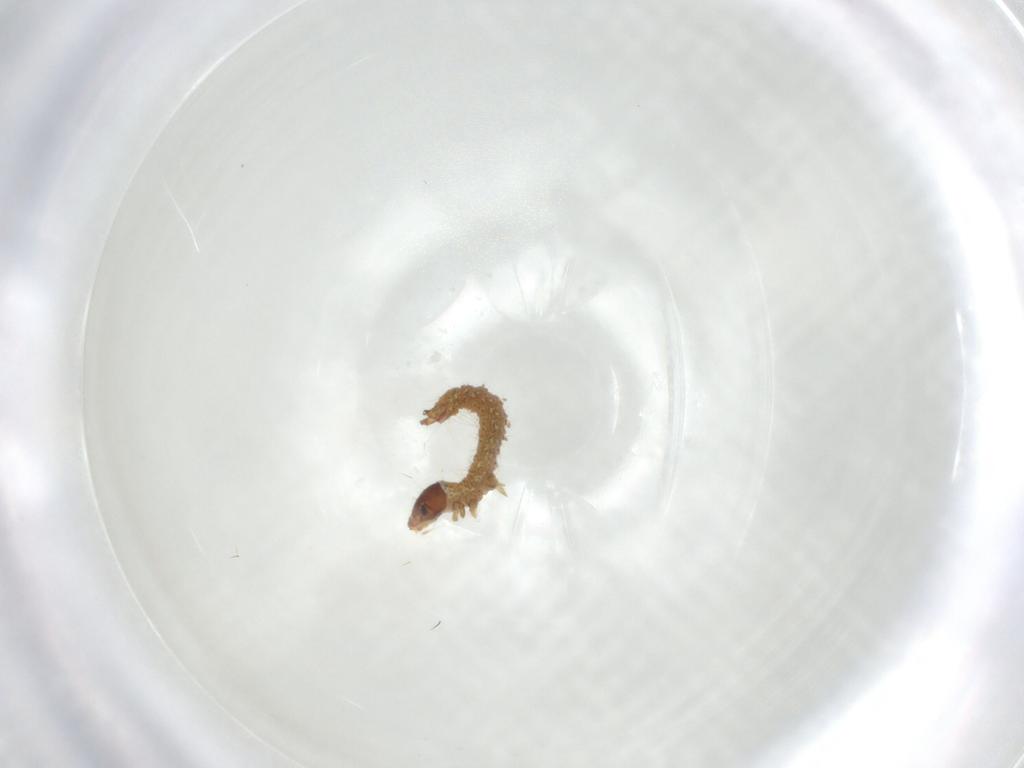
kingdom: Animalia
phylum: Arthropoda
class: Insecta
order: Lepidoptera
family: Pyralidae
